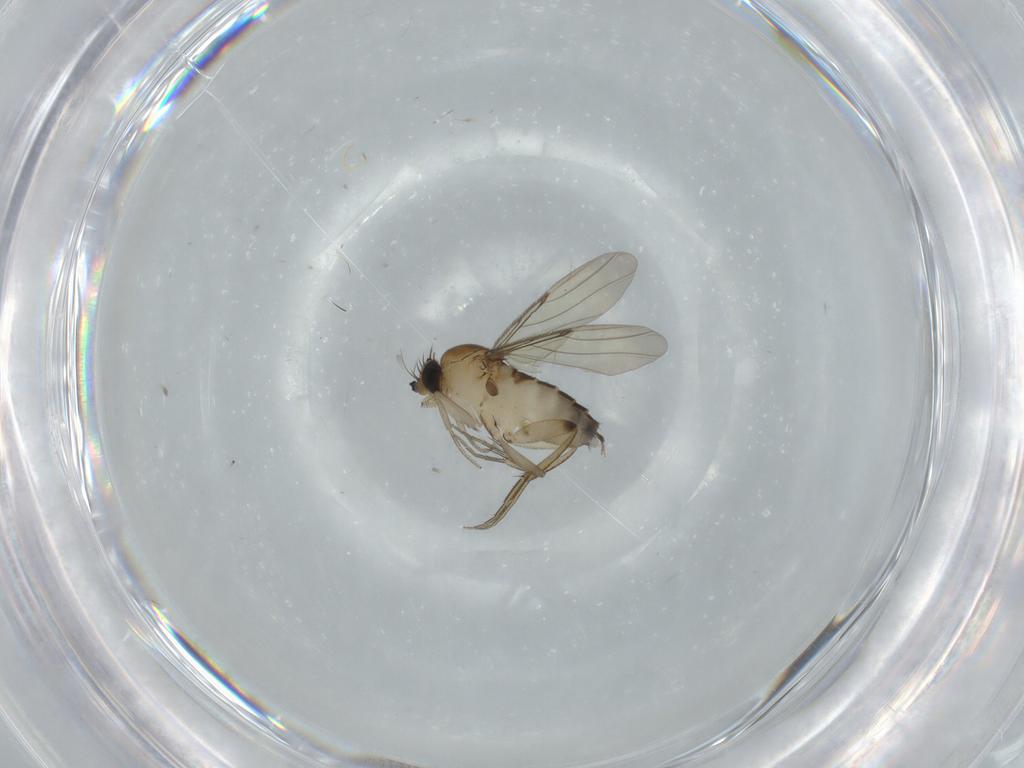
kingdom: Animalia
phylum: Arthropoda
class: Insecta
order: Diptera
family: Phoridae
